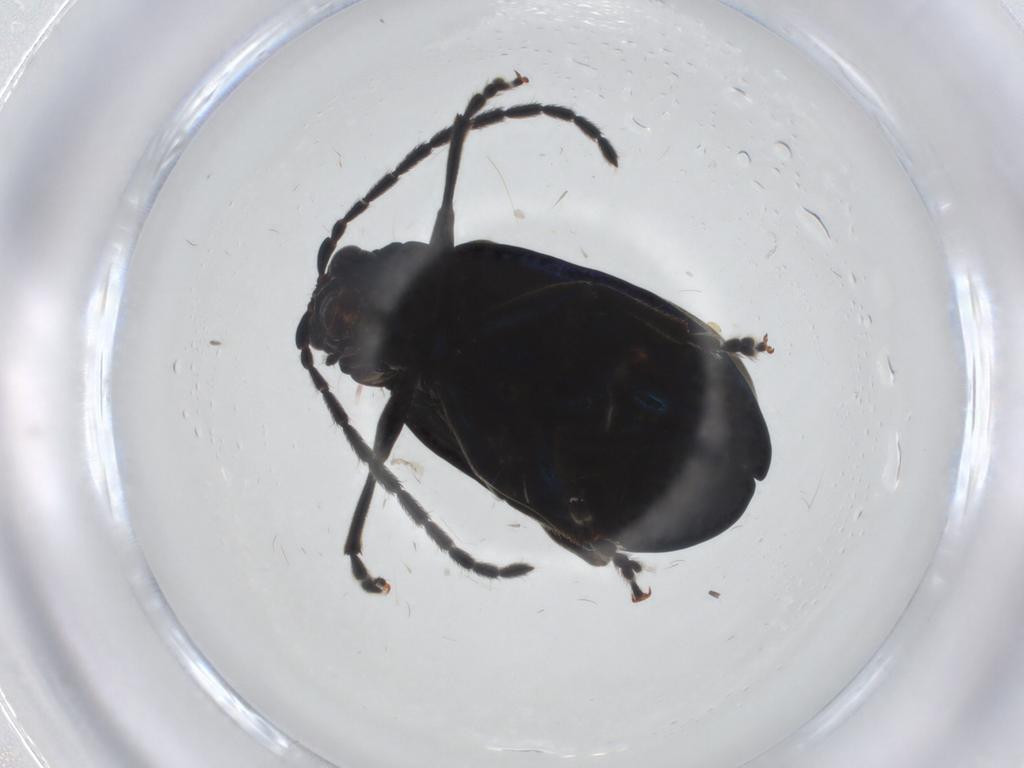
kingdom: Animalia
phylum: Arthropoda
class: Insecta
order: Coleoptera
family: Chrysomelidae
